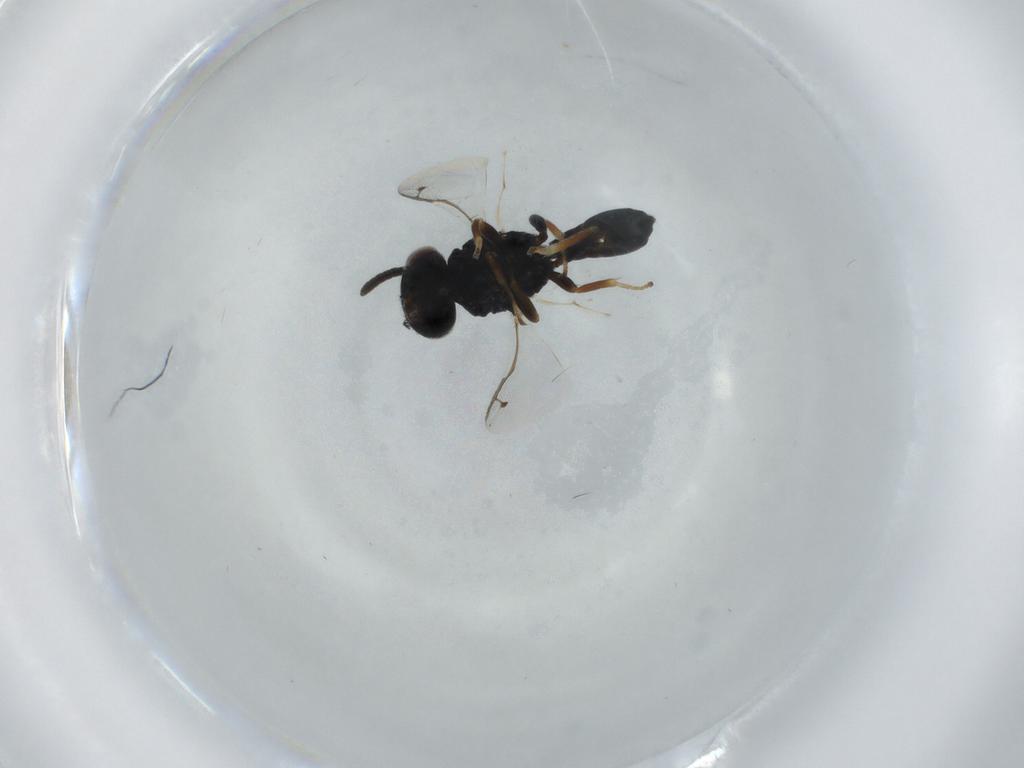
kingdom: Animalia
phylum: Arthropoda
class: Insecta
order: Hymenoptera
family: Pteromalidae
